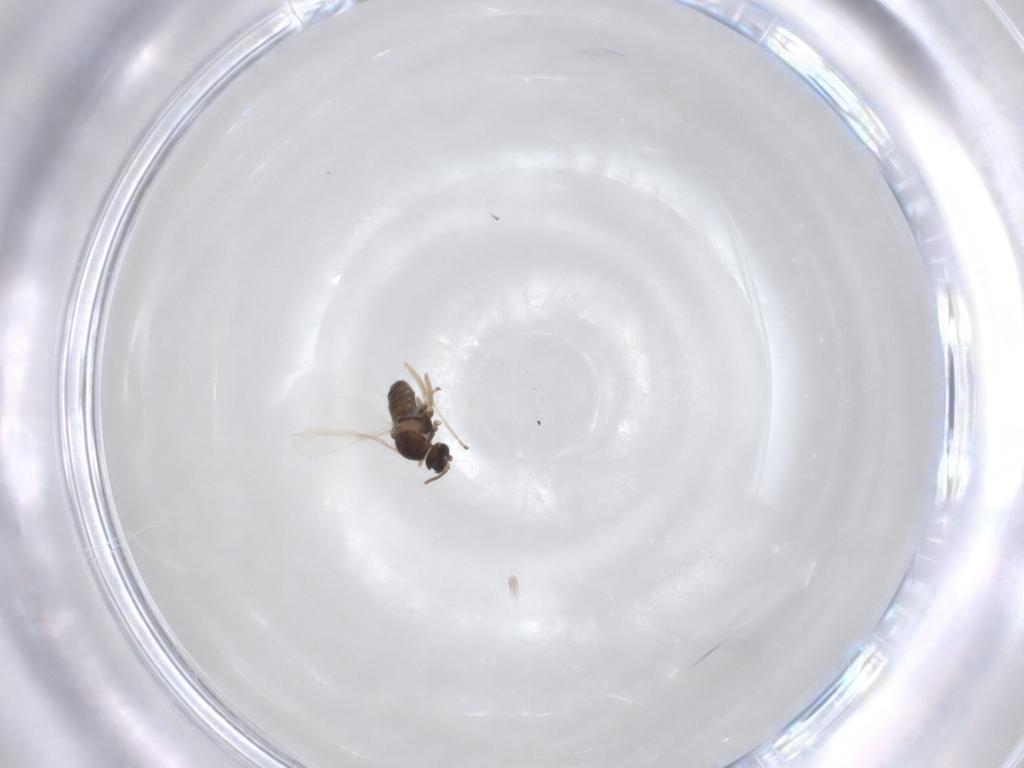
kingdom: Animalia
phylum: Arthropoda
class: Insecta
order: Diptera
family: Cecidomyiidae
